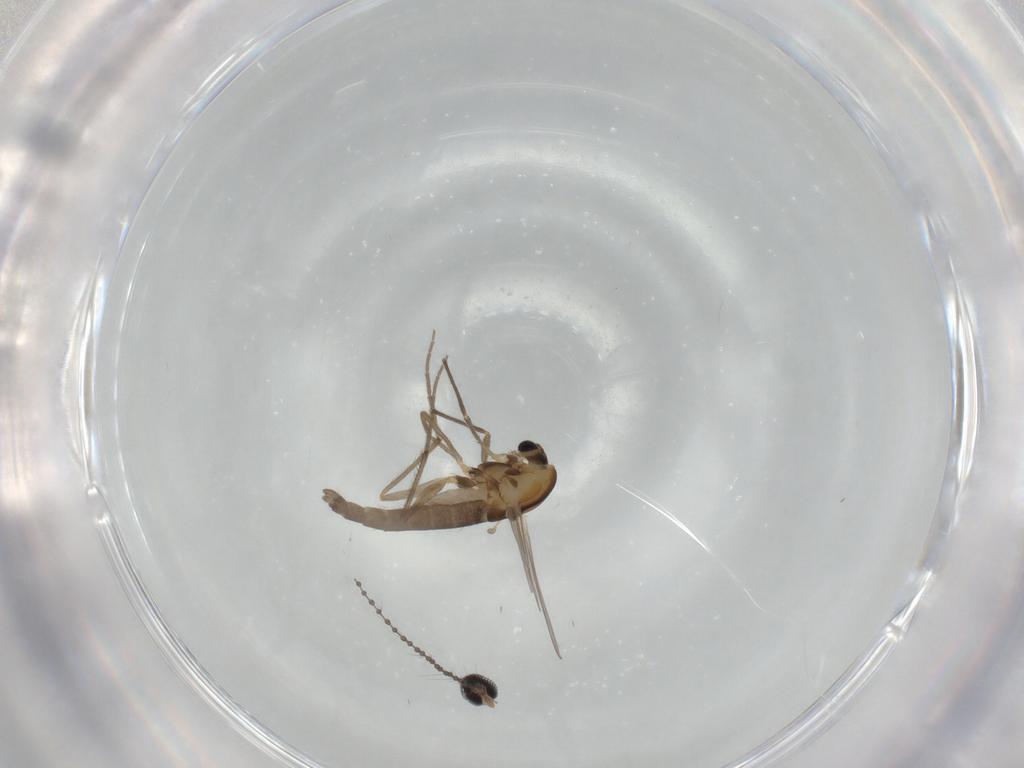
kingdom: Animalia
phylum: Arthropoda
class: Insecta
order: Diptera
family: Chironomidae
